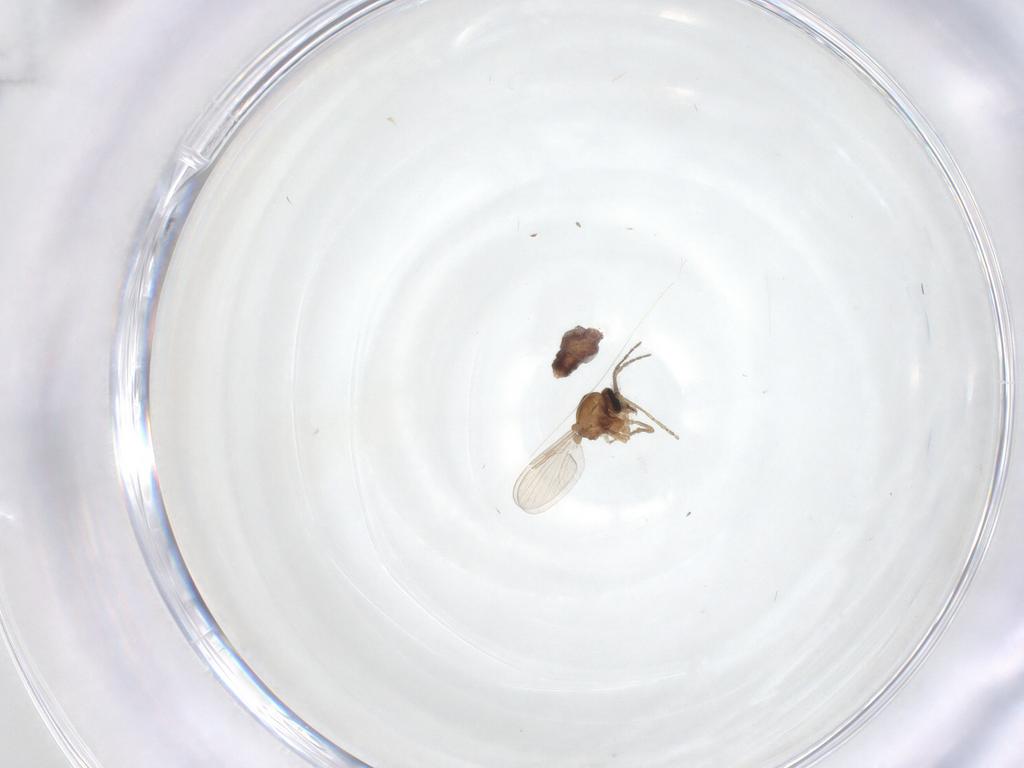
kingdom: Animalia
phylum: Arthropoda
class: Insecta
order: Diptera
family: Ceratopogonidae
